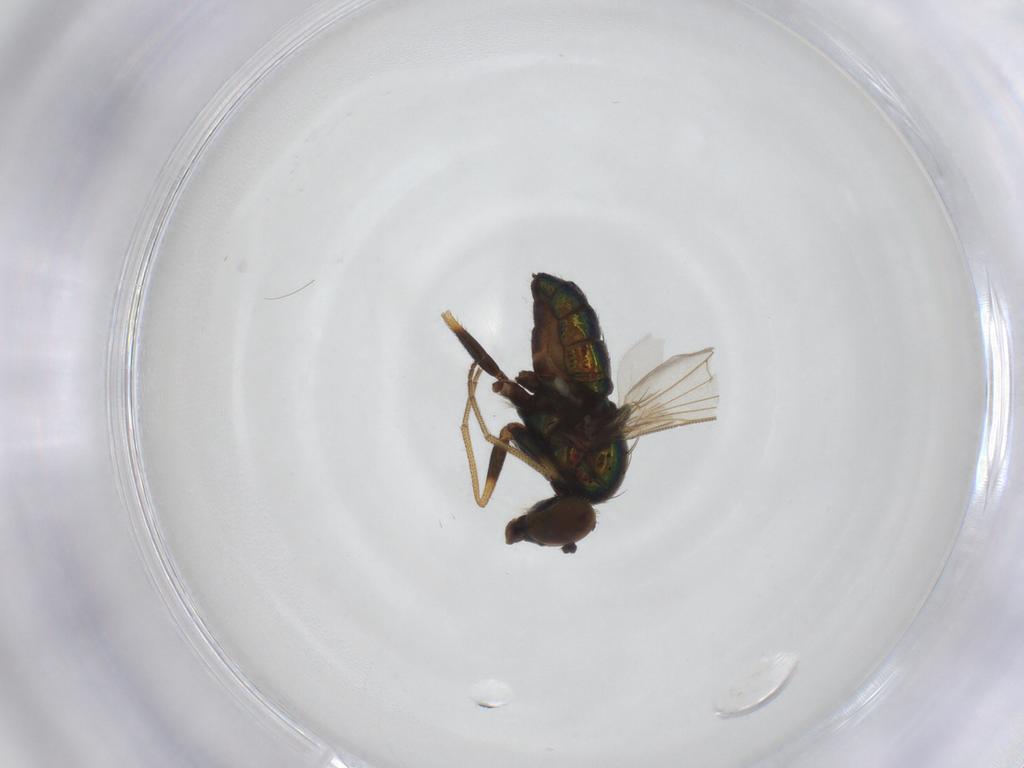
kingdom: Animalia
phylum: Arthropoda
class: Insecta
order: Diptera
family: Dolichopodidae
